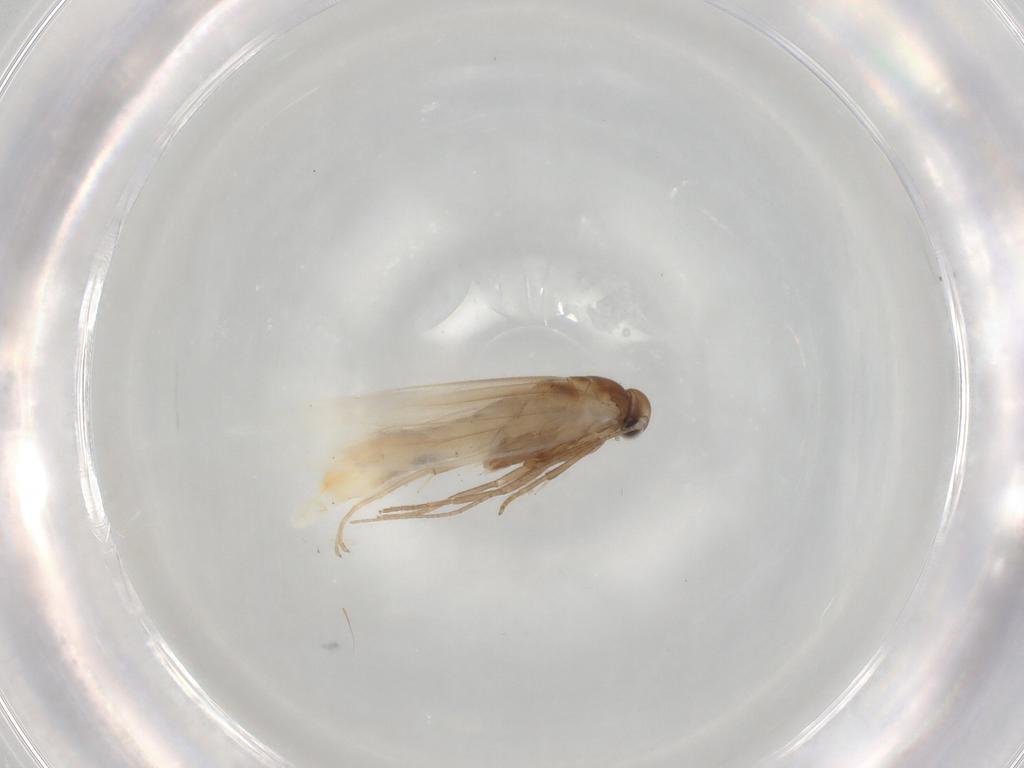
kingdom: Animalia
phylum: Arthropoda
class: Insecta
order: Lepidoptera
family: Elachistidae
